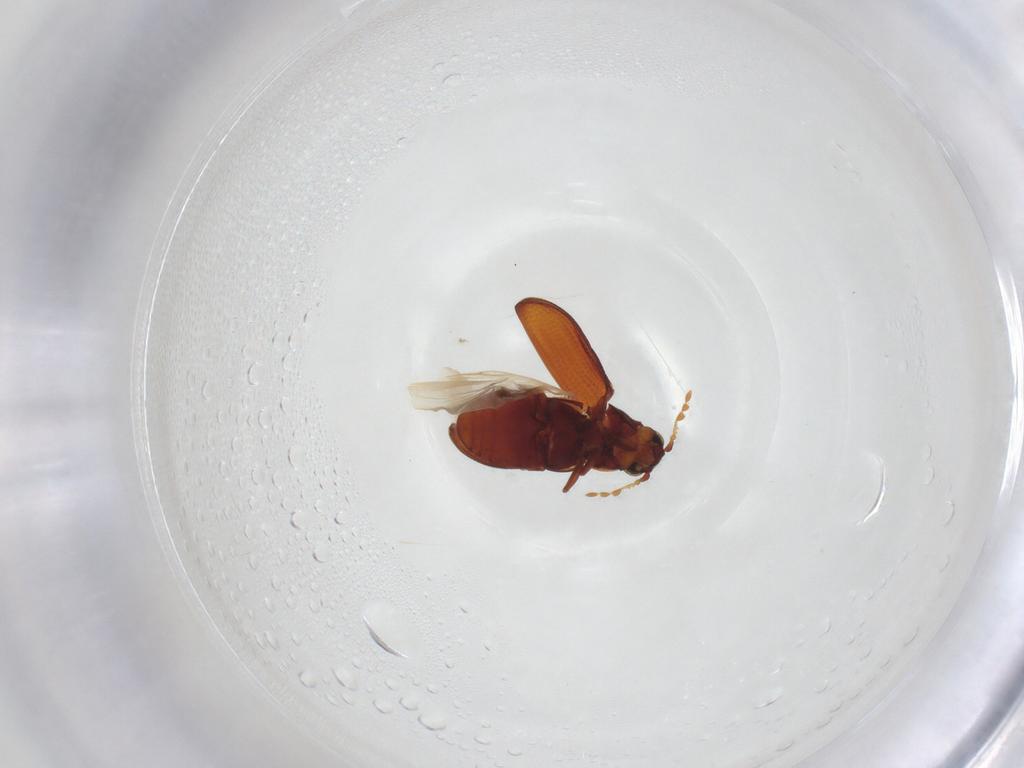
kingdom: Animalia
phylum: Arthropoda
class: Insecta
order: Coleoptera
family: Ptinidae
